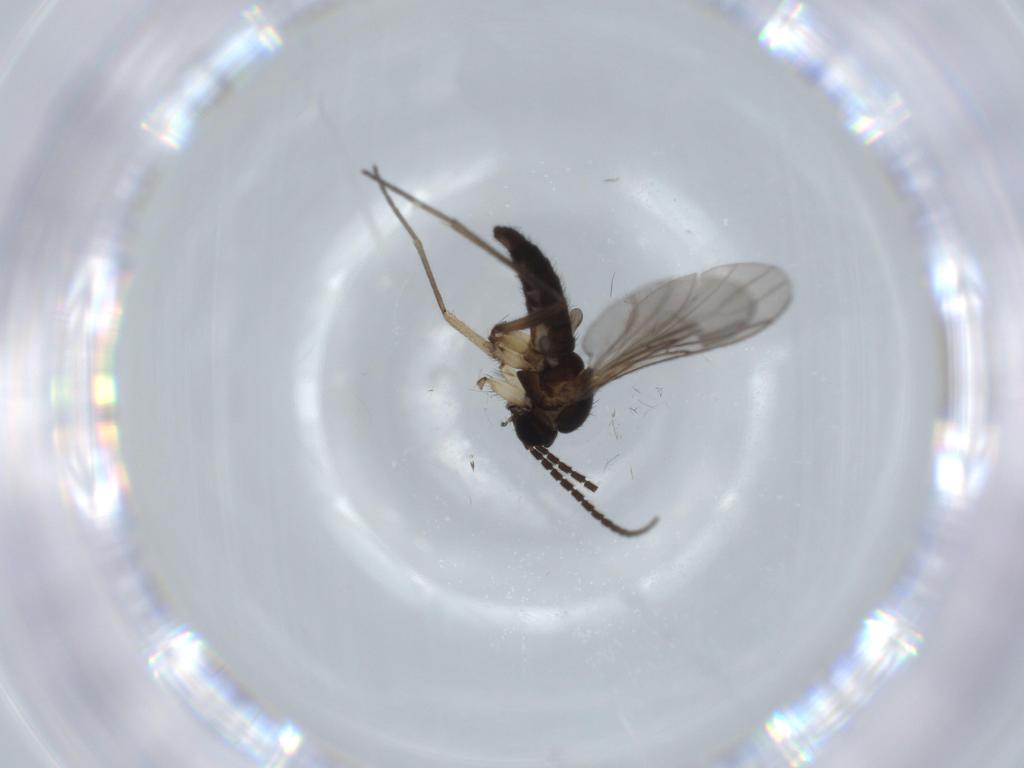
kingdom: Animalia
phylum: Arthropoda
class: Insecta
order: Diptera
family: Sciaridae
